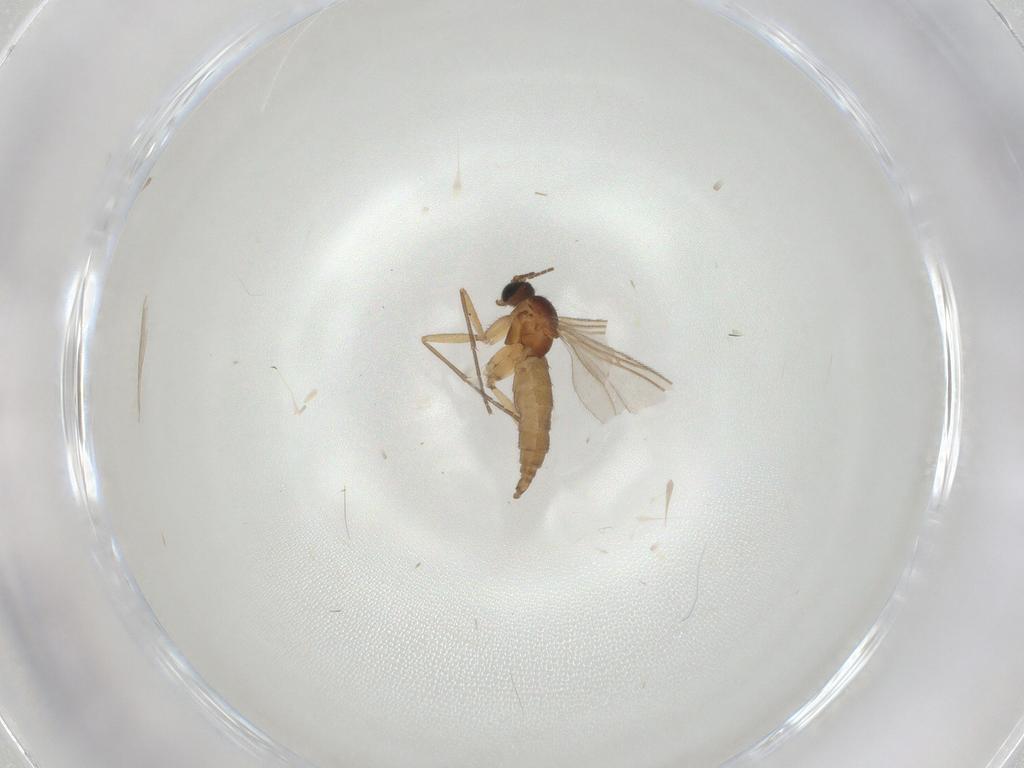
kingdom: Animalia
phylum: Arthropoda
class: Insecta
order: Diptera
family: Sciaridae
